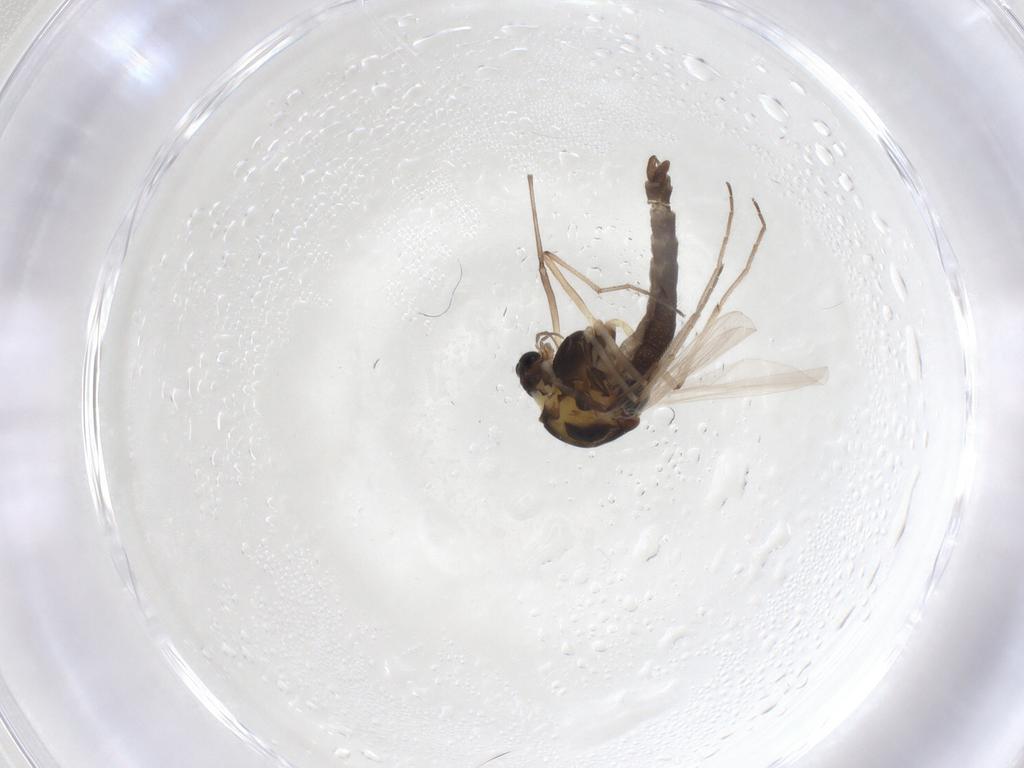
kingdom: Animalia
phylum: Arthropoda
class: Insecta
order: Diptera
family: Chironomidae
